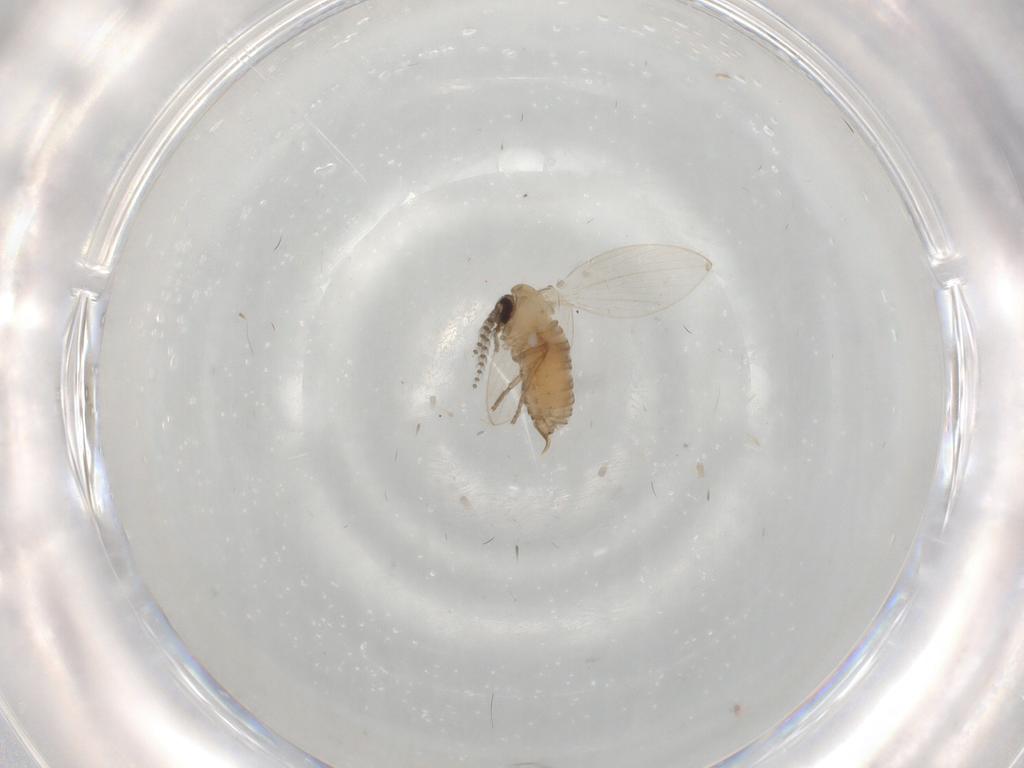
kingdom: Animalia
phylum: Arthropoda
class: Insecta
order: Diptera
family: Psychodidae
